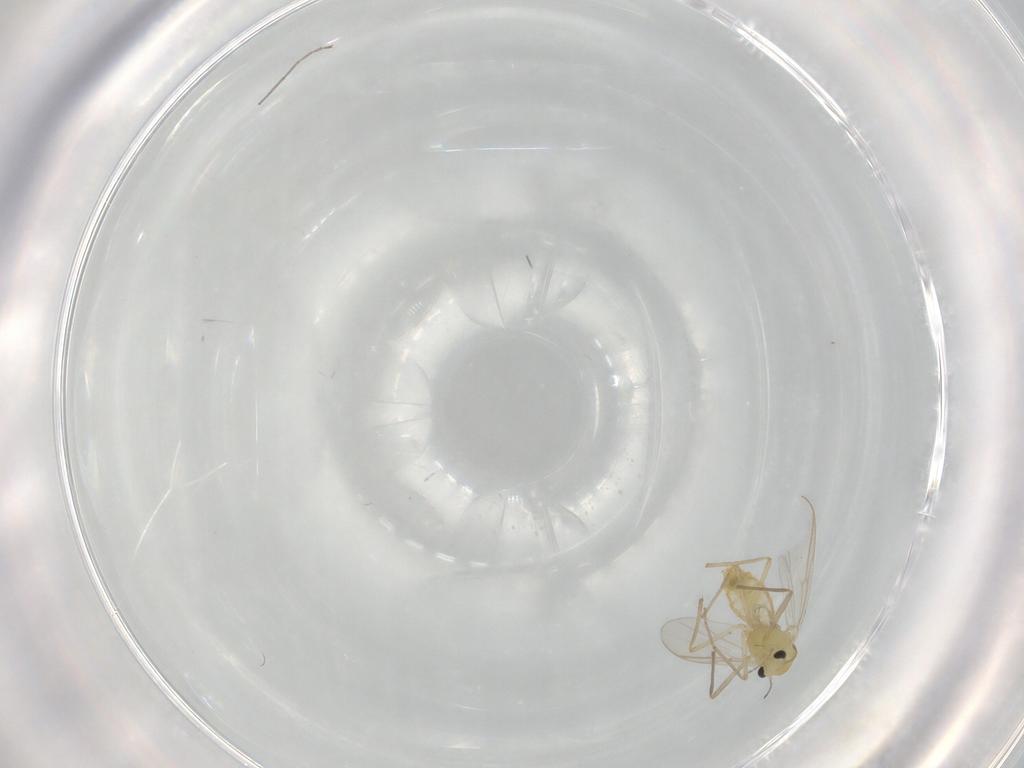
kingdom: Animalia
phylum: Arthropoda
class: Insecta
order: Diptera
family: Chironomidae
